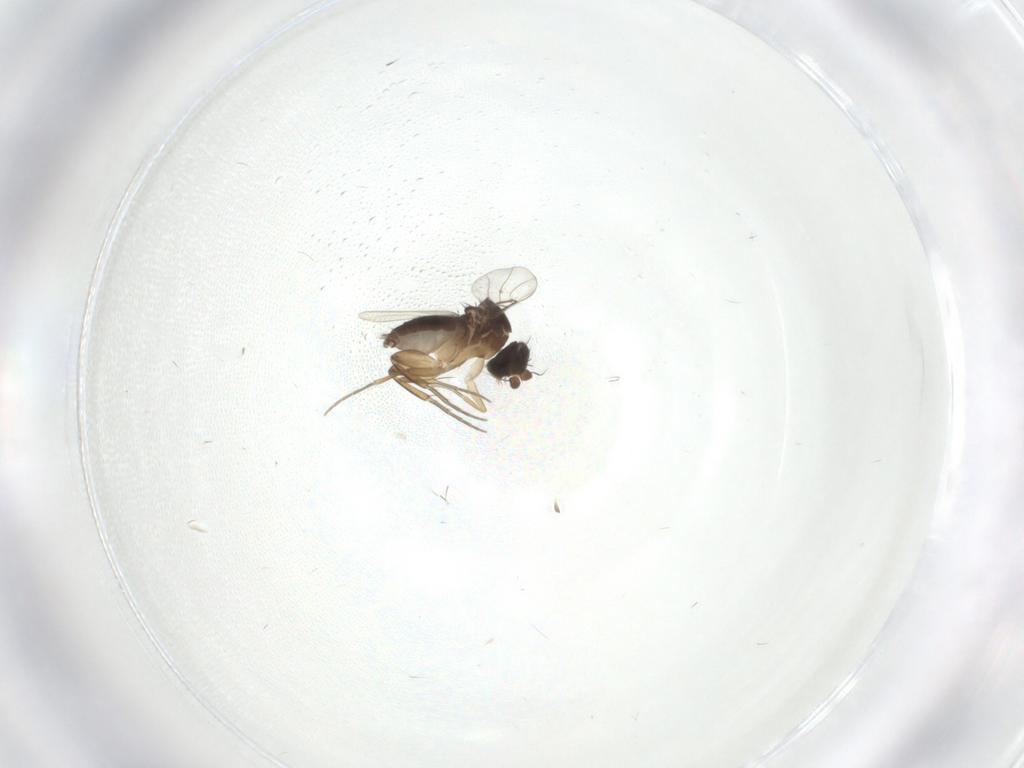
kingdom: Animalia
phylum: Arthropoda
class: Insecta
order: Diptera
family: Phoridae
